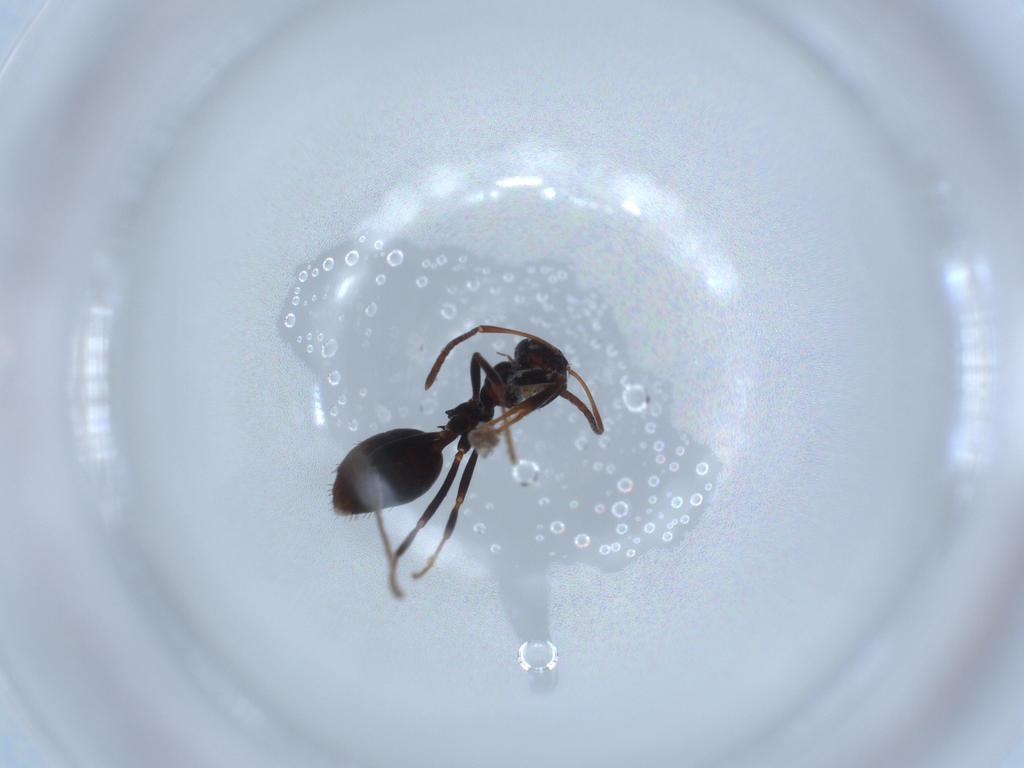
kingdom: Animalia
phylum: Arthropoda
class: Insecta
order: Hymenoptera
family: Formicidae
